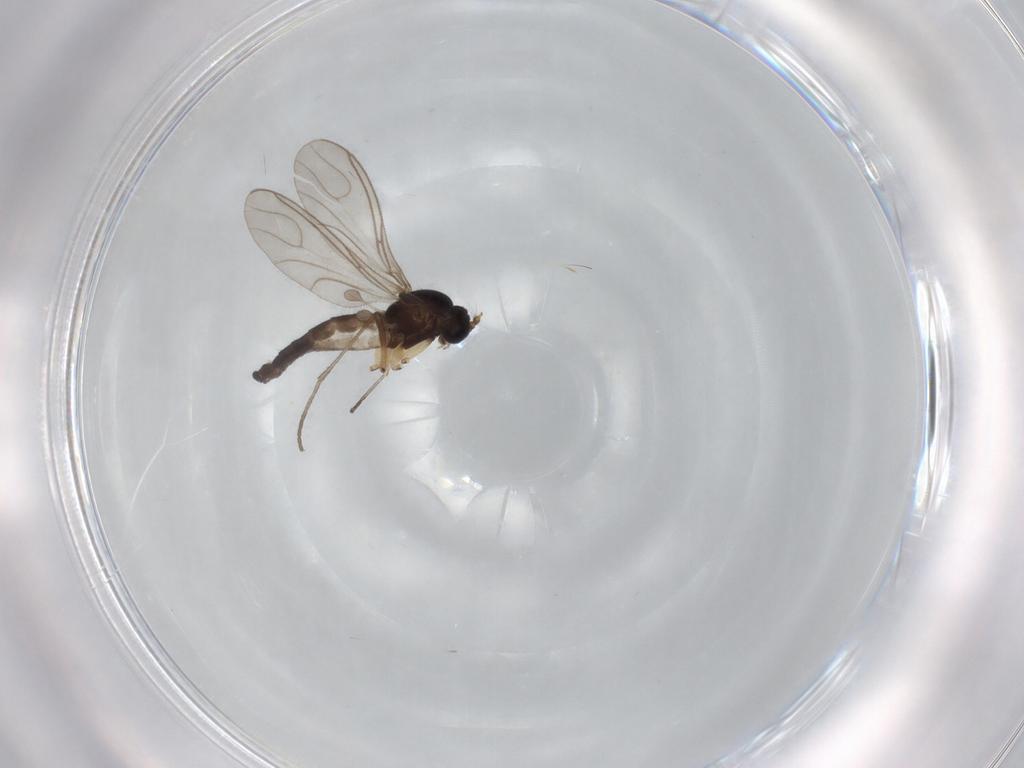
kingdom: Animalia
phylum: Arthropoda
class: Insecta
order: Diptera
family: Sciaridae
